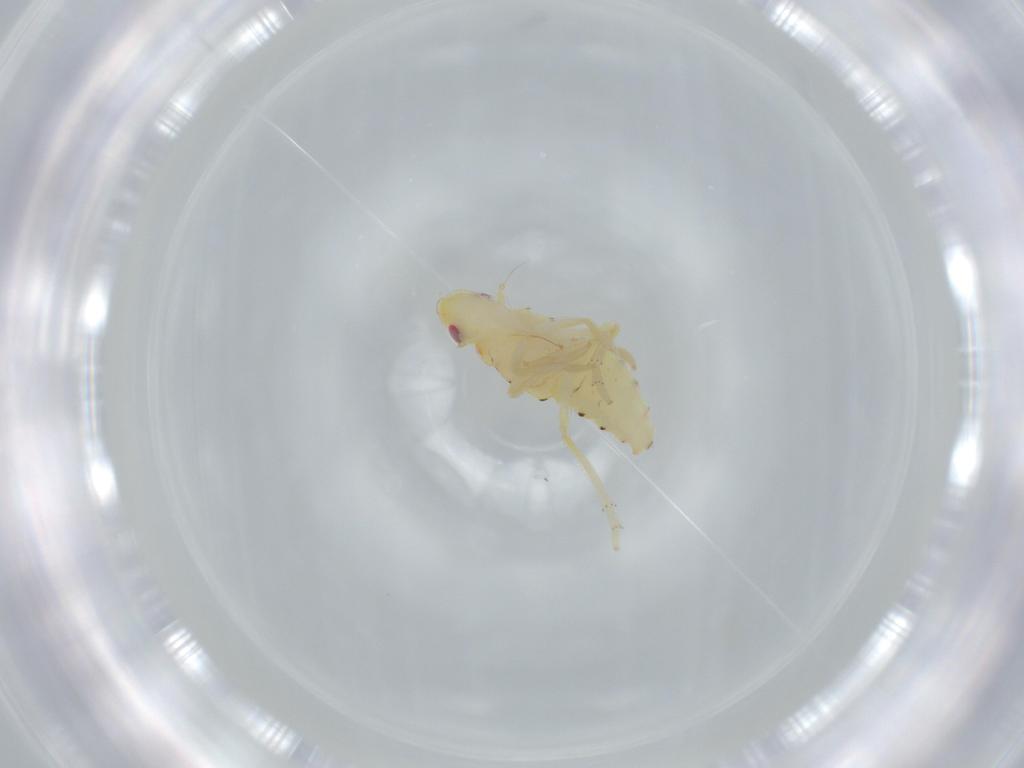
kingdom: Animalia
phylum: Arthropoda
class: Insecta
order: Hemiptera
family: Tropiduchidae
